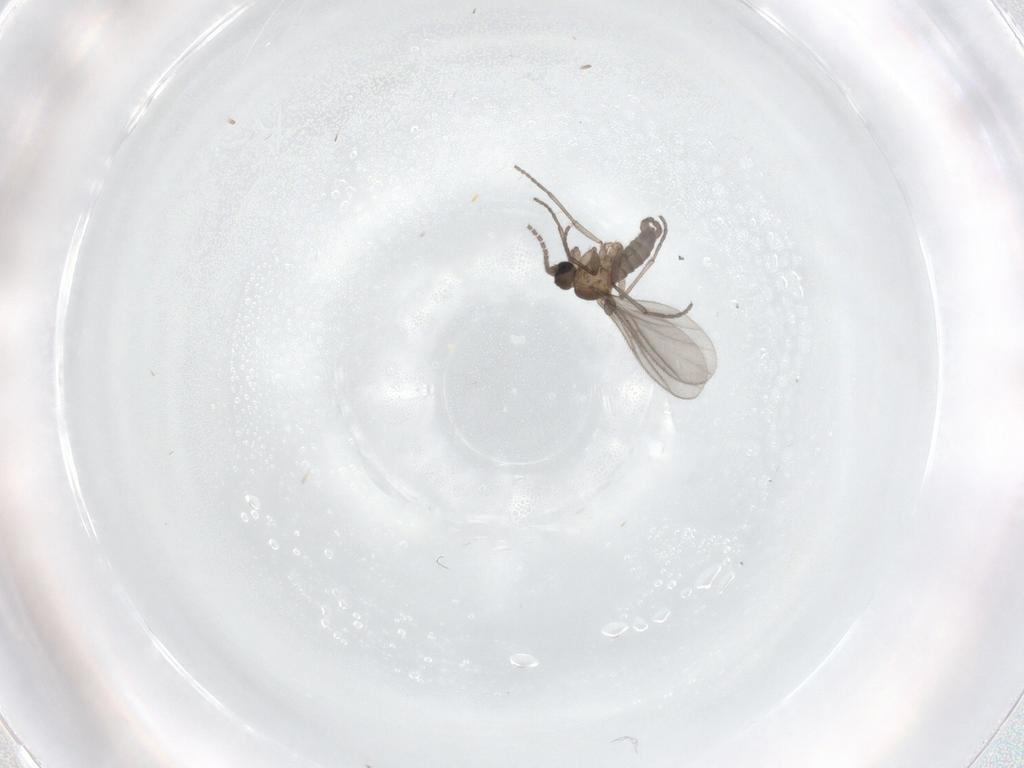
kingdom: Animalia
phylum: Arthropoda
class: Insecta
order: Diptera
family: Sciaridae
